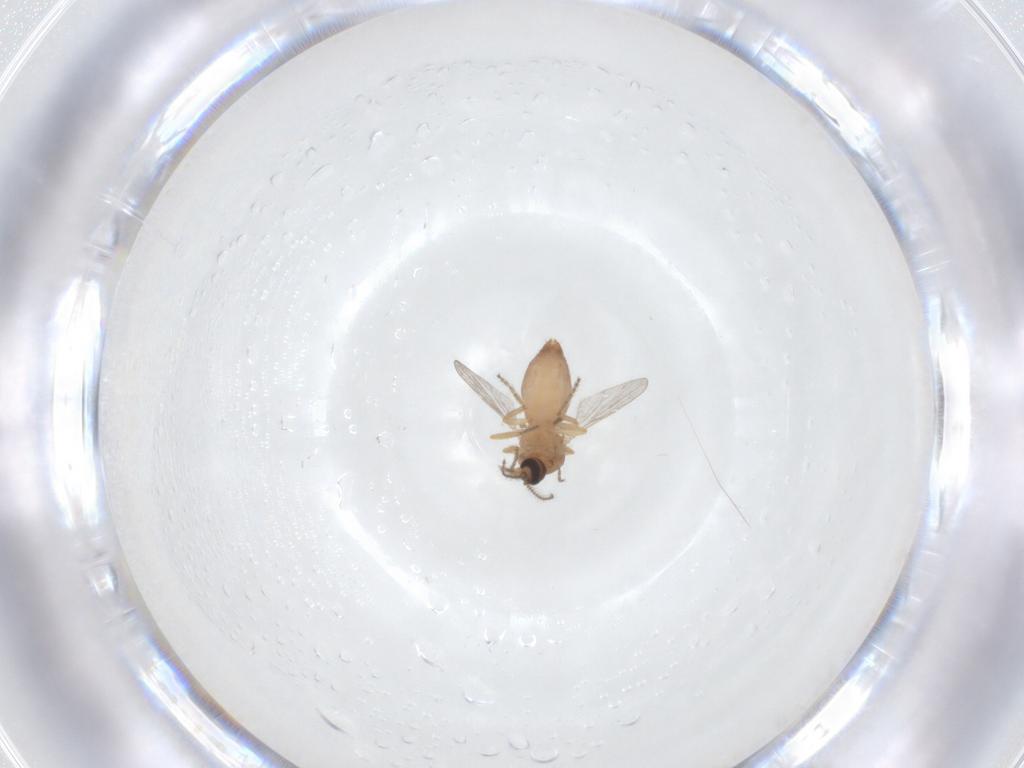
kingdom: Animalia
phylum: Arthropoda
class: Insecta
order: Diptera
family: Ceratopogonidae
